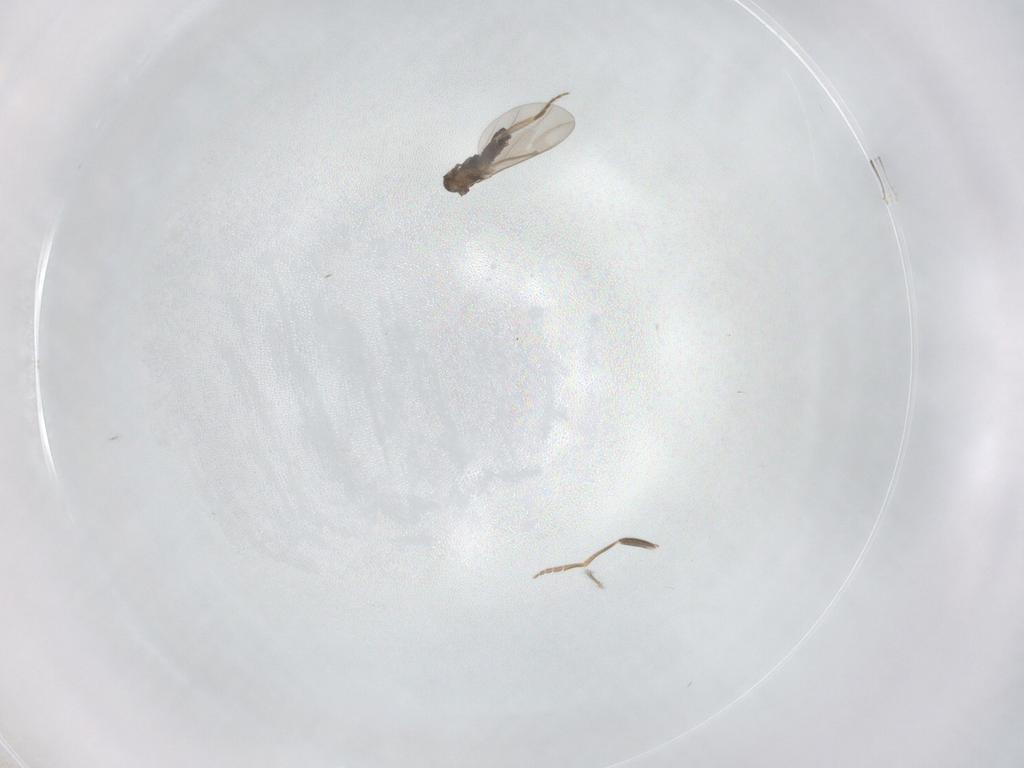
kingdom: Animalia
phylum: Arthropoda
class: Insecta
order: Diptera
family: Phoridae
